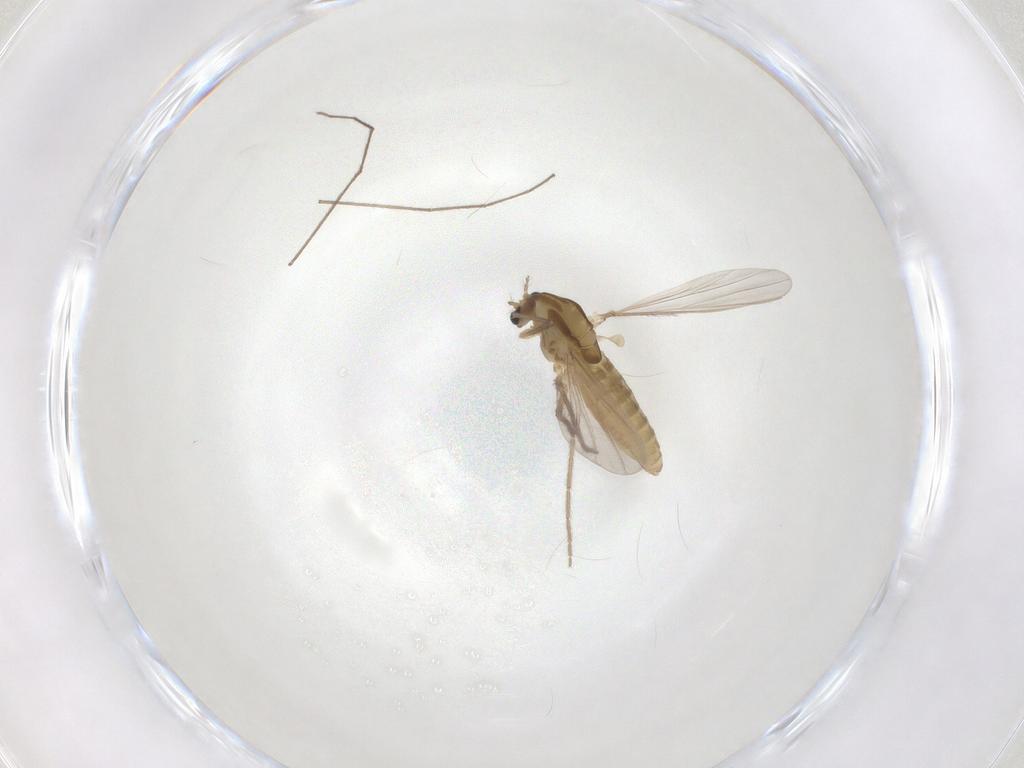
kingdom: Animalia
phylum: Arthropoda
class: Insecta
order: Diptera
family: Chironomidae
